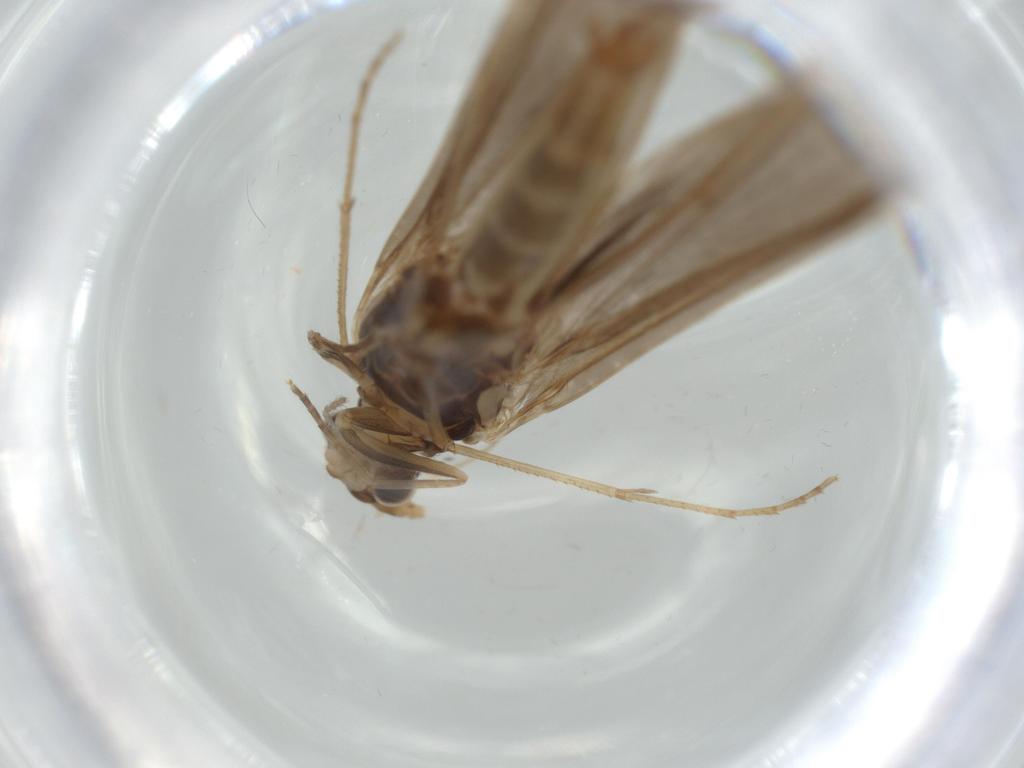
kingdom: Animalia
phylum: Arthropoda
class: Insecta
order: Trichoptera
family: Leptoceridae
